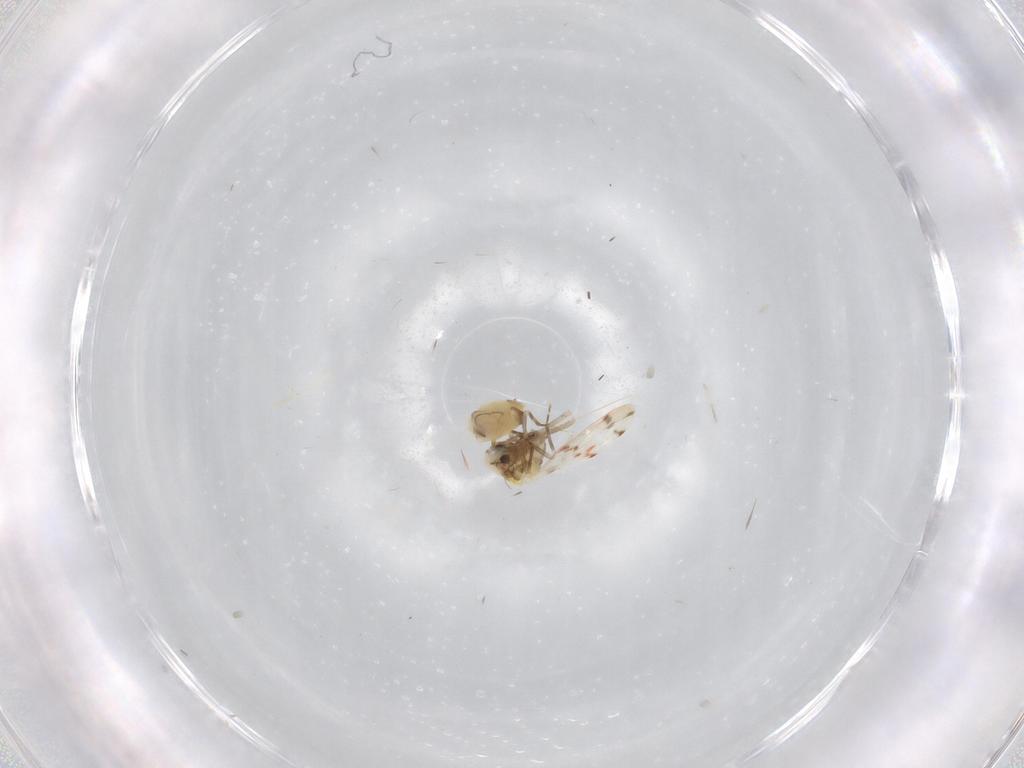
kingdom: Animalia
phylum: Arthropoda
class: Insecta
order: Hemiptera
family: Aleyrodidae
